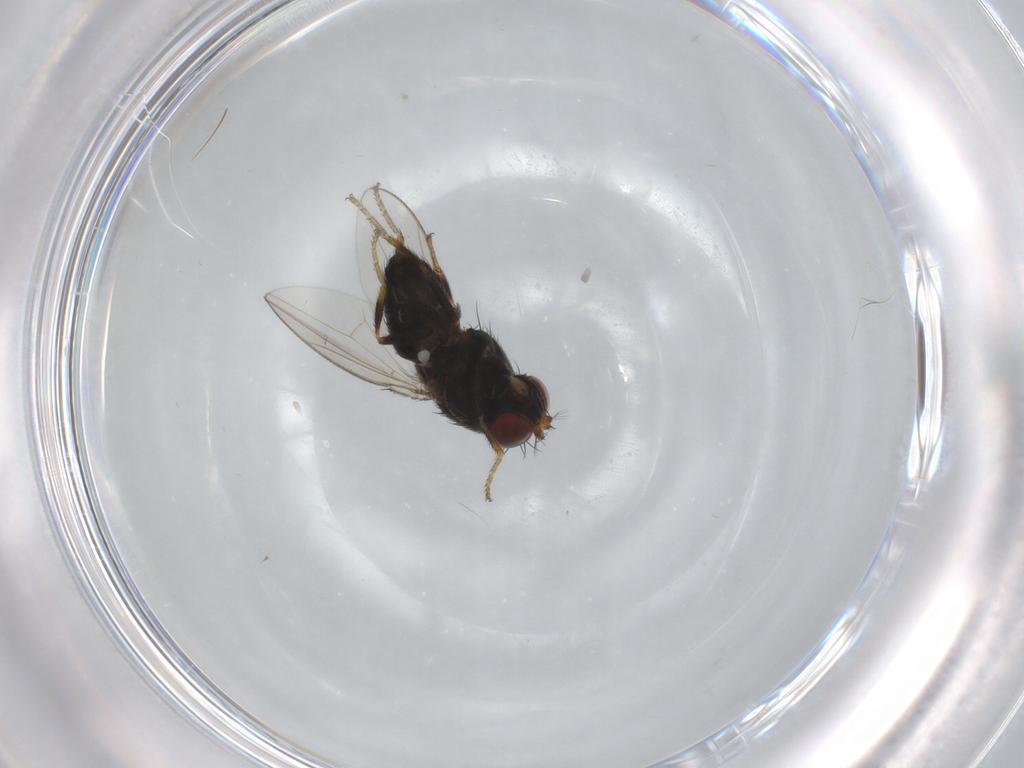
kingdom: Animalia
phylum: Arthropoda
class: Insecta
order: Diptera
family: Ephydridae
